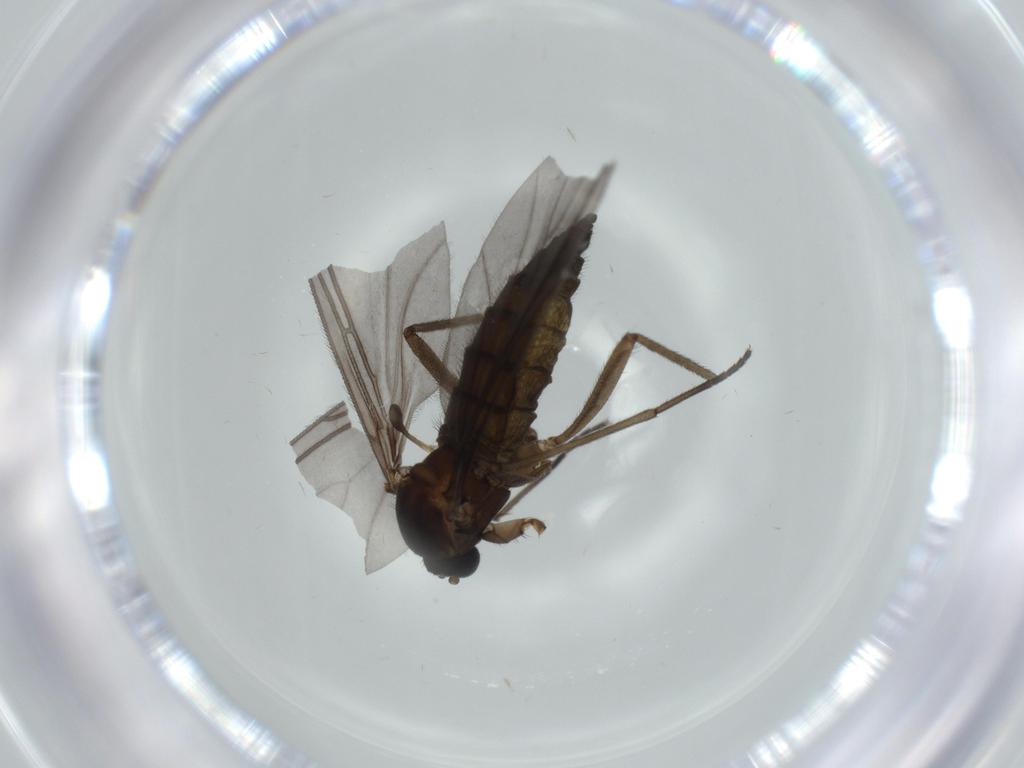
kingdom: Animalia
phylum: Arthropoda
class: Insecta
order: Diptera
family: Sciaridae
